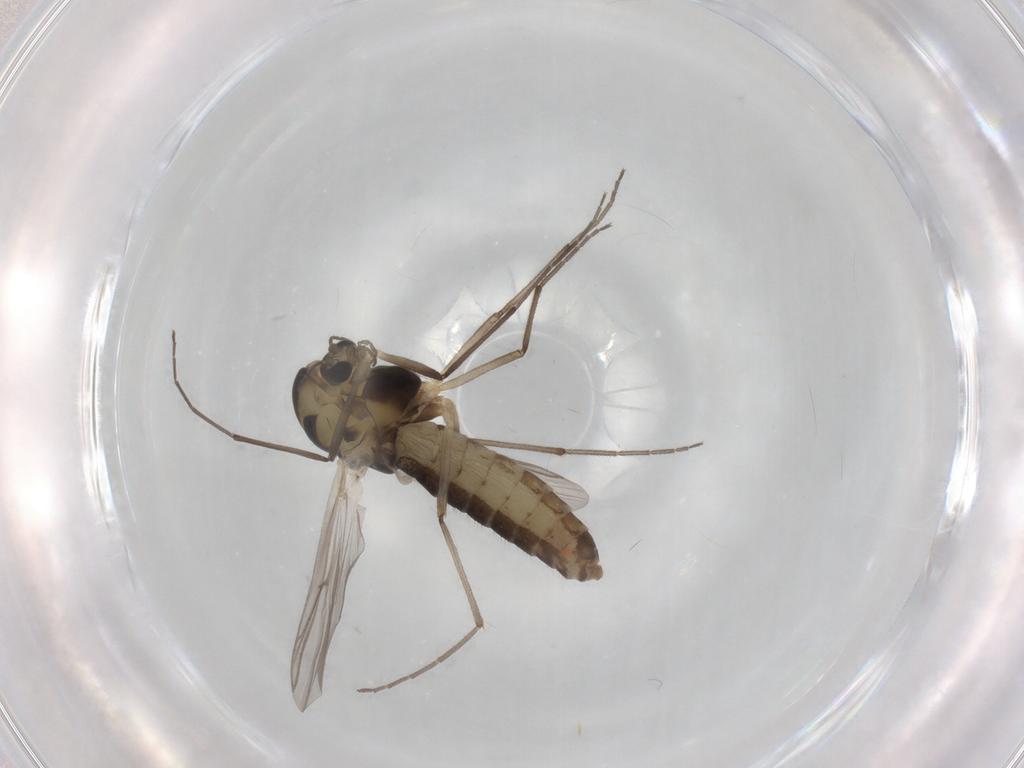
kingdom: Animalia
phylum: Arthropoda
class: Insecta
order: Diptera
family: Chironomidae
